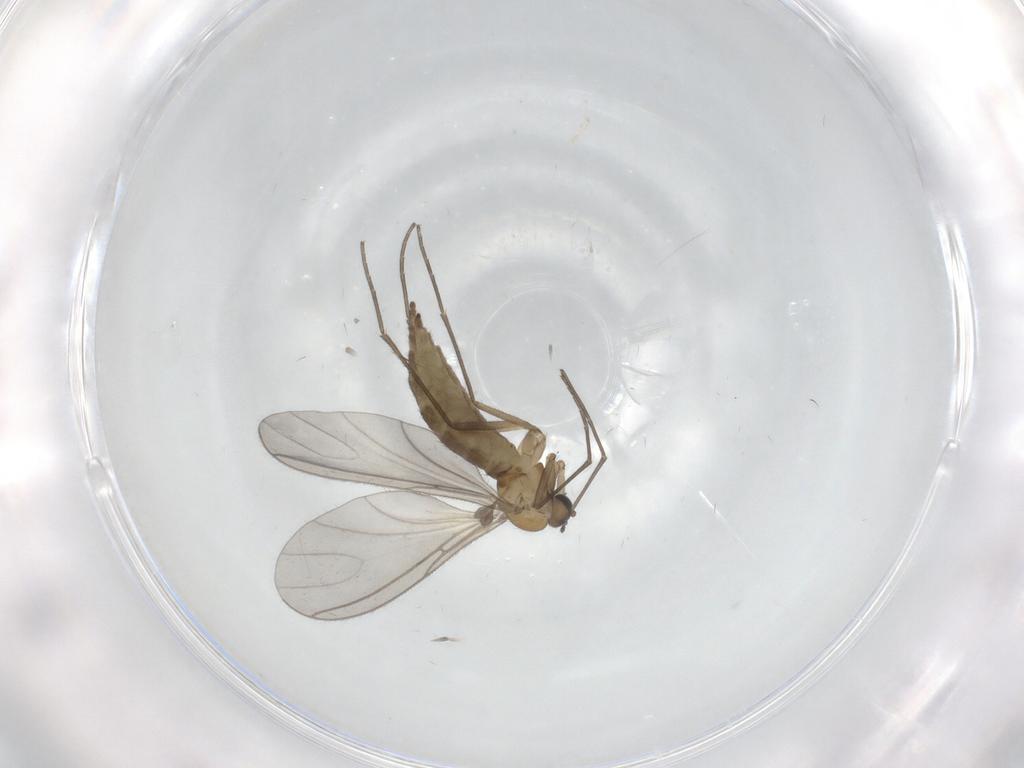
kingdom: Animalia
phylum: Arthropoda
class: Insecta
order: Diptera
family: Sciaridae
